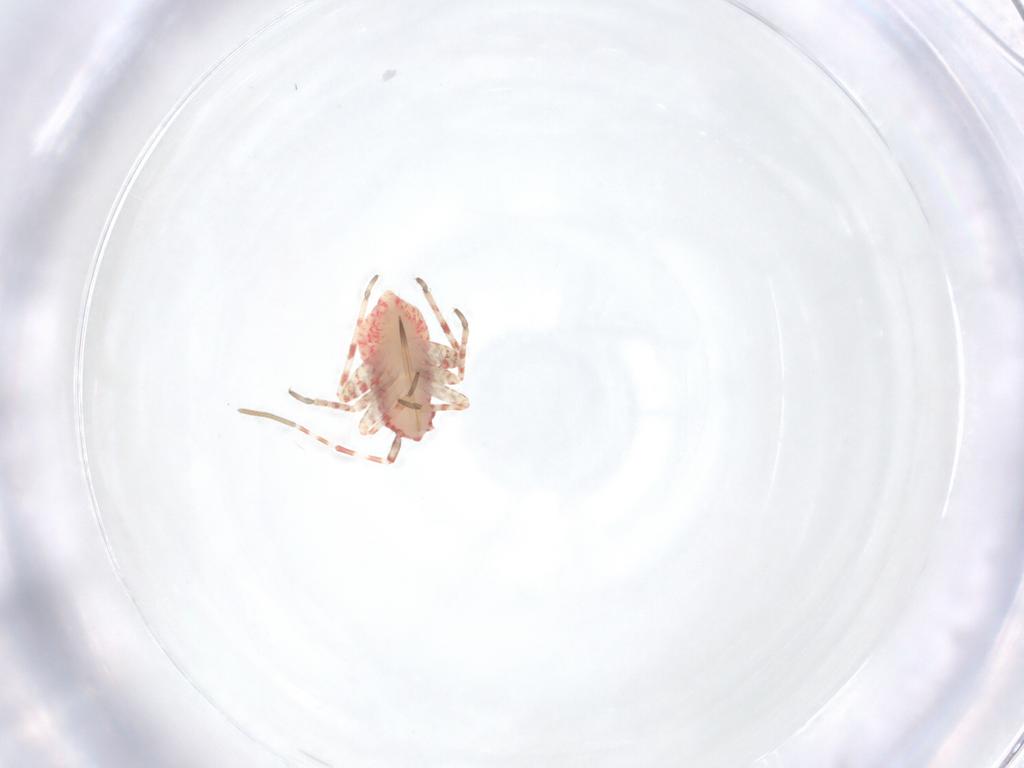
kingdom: Animalia
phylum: Arthropoda
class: Insecta
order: Hemiptera
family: Miridae
